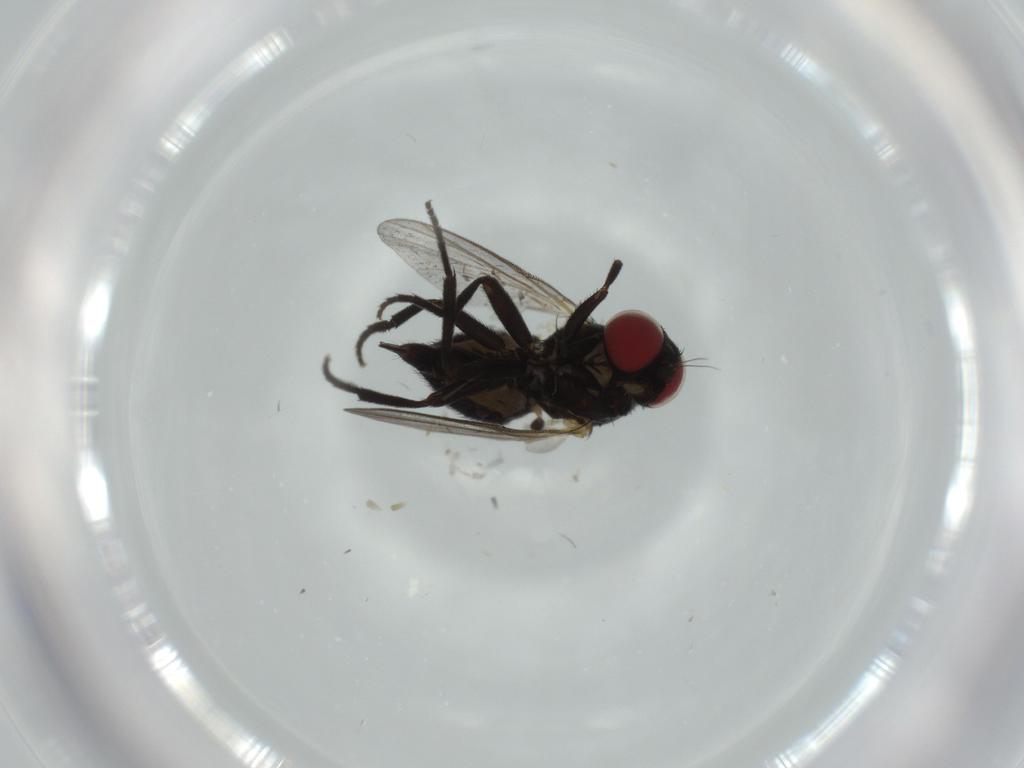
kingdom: Animalia
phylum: Arthropoda
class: Insecta
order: Diptera
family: Agromyzidae
